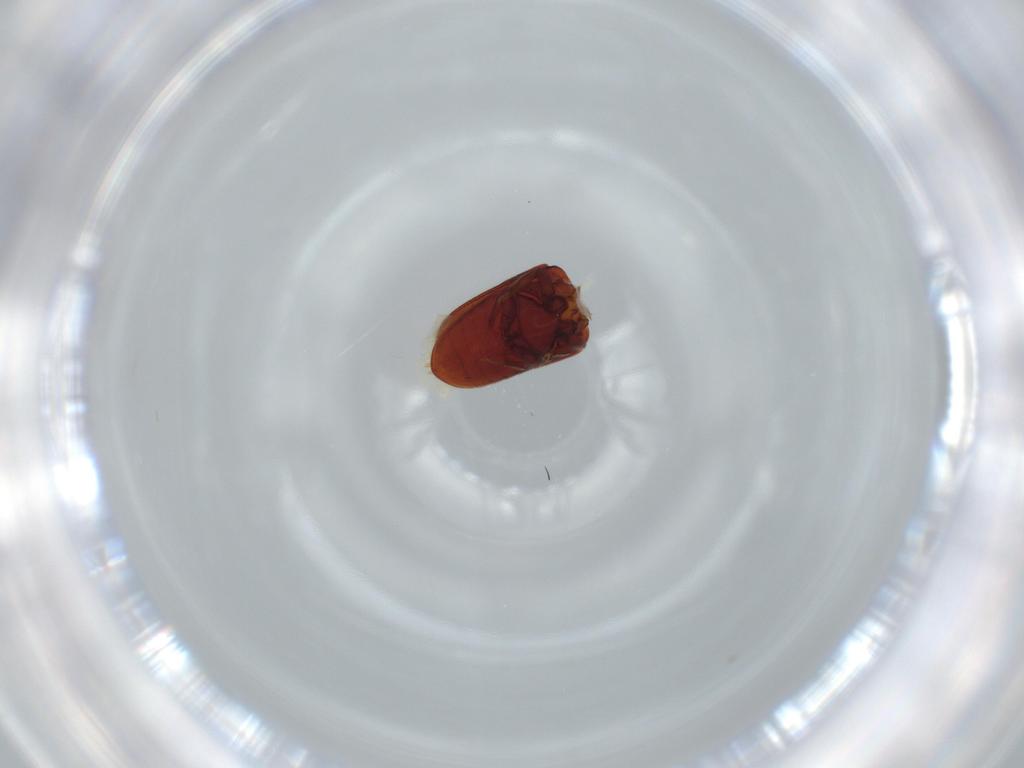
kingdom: Animalia
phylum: Arthropoda
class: Insecta
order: Coleoptera
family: Throscidae
